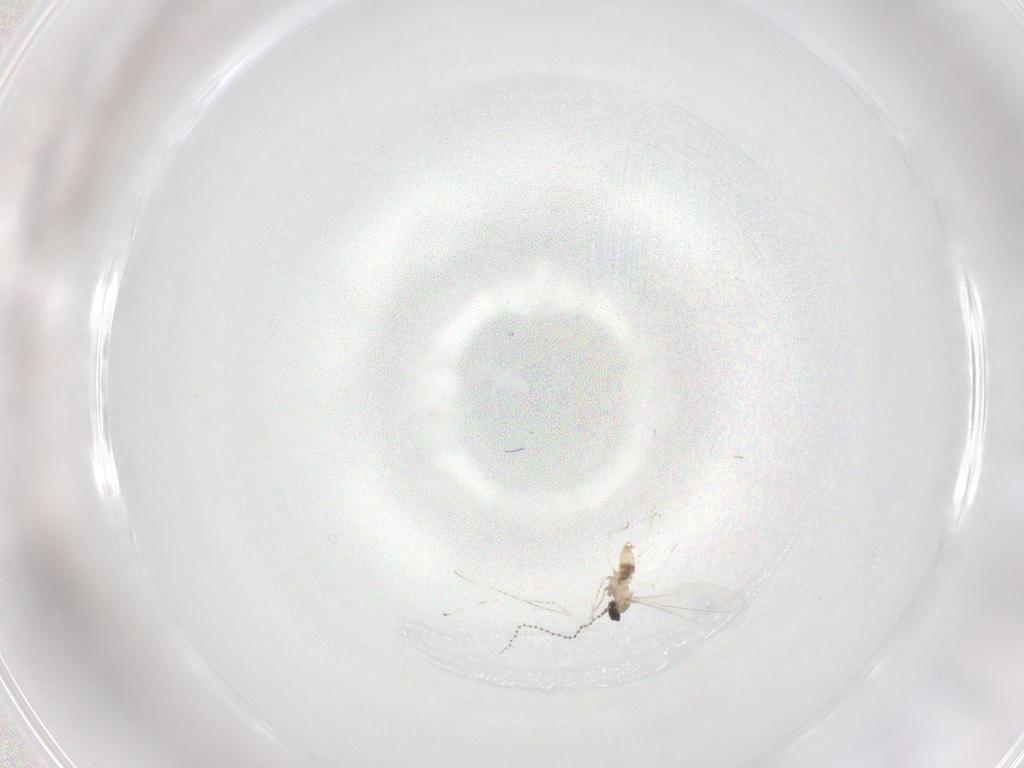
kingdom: Animalia
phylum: Arthropoda
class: Insecta
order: Diptera
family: Cecidomyiidae
